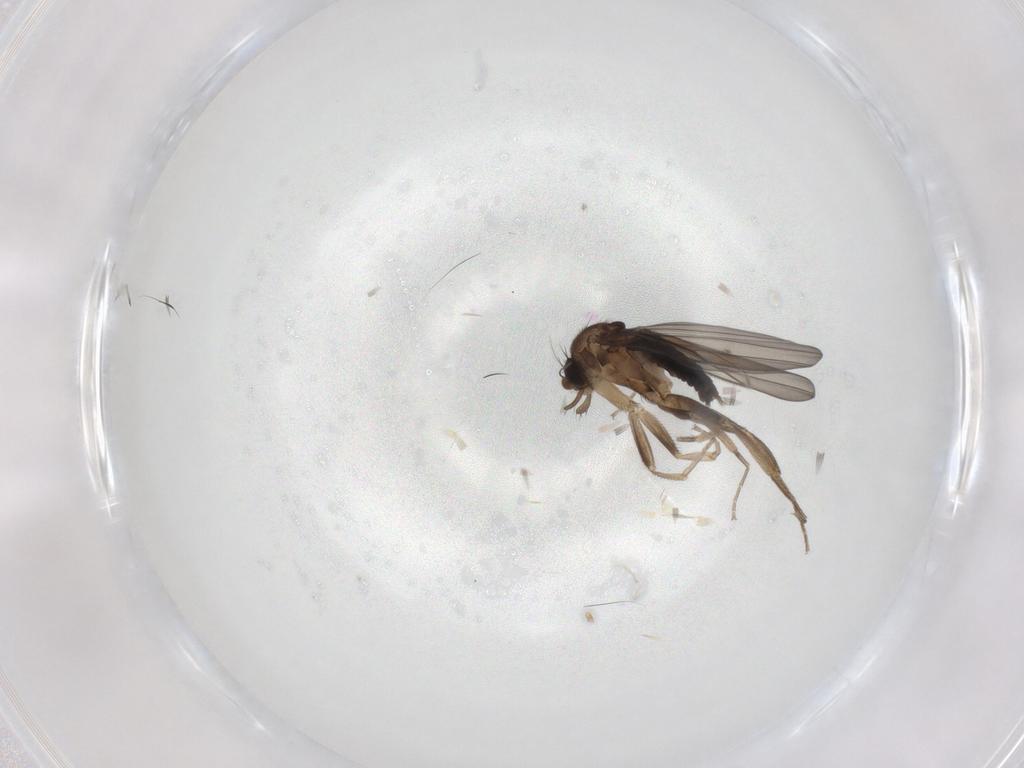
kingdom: Animalia
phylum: Arthropoda
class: Insecta
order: Diptera
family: Phoridae
